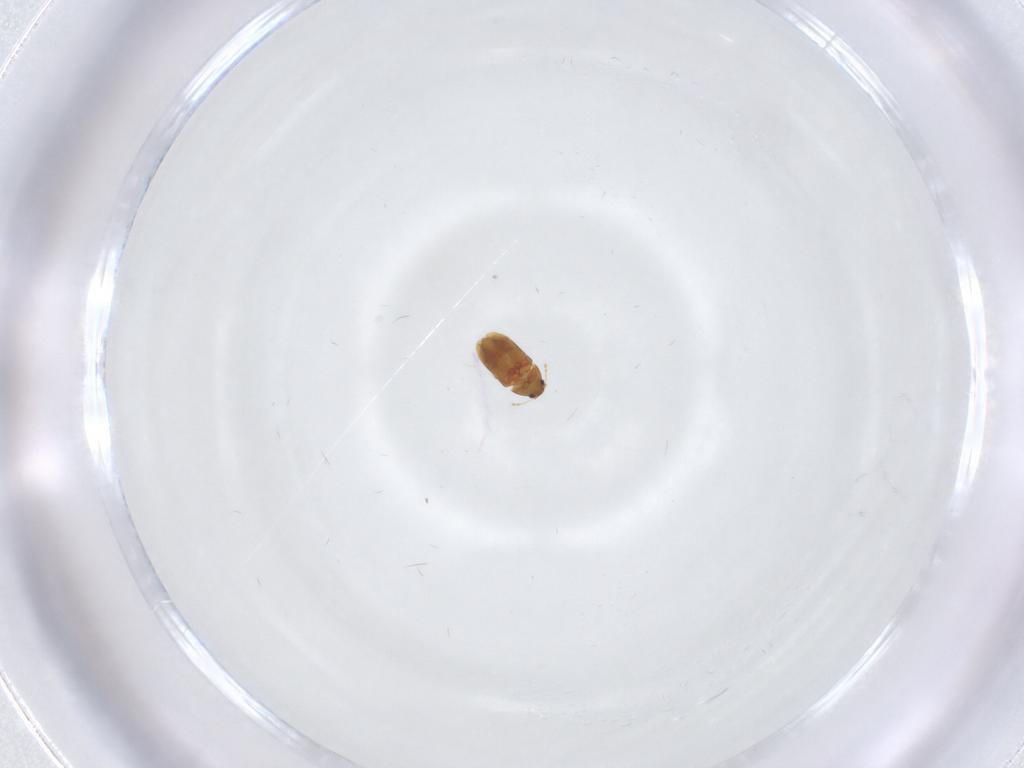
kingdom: Animalia
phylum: Arthropoda
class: Insecta
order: Coleoptera
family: Ptiliidae
